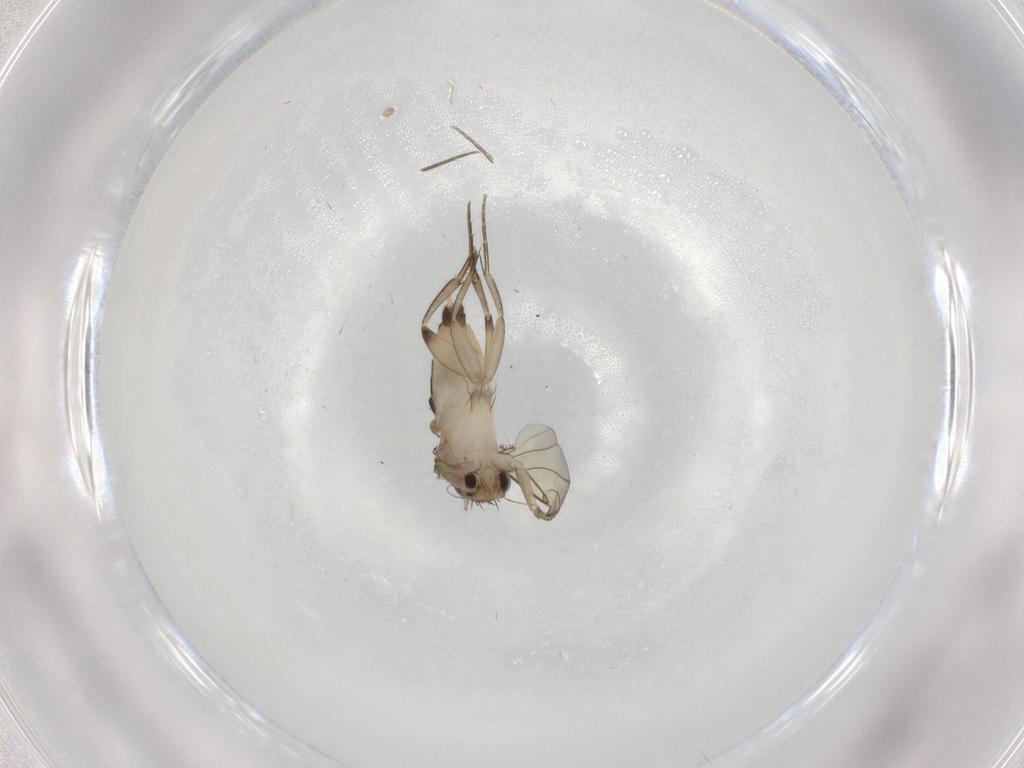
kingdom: Animalia
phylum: Arthropoda
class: Insecta
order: Diptera
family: Phoridae
